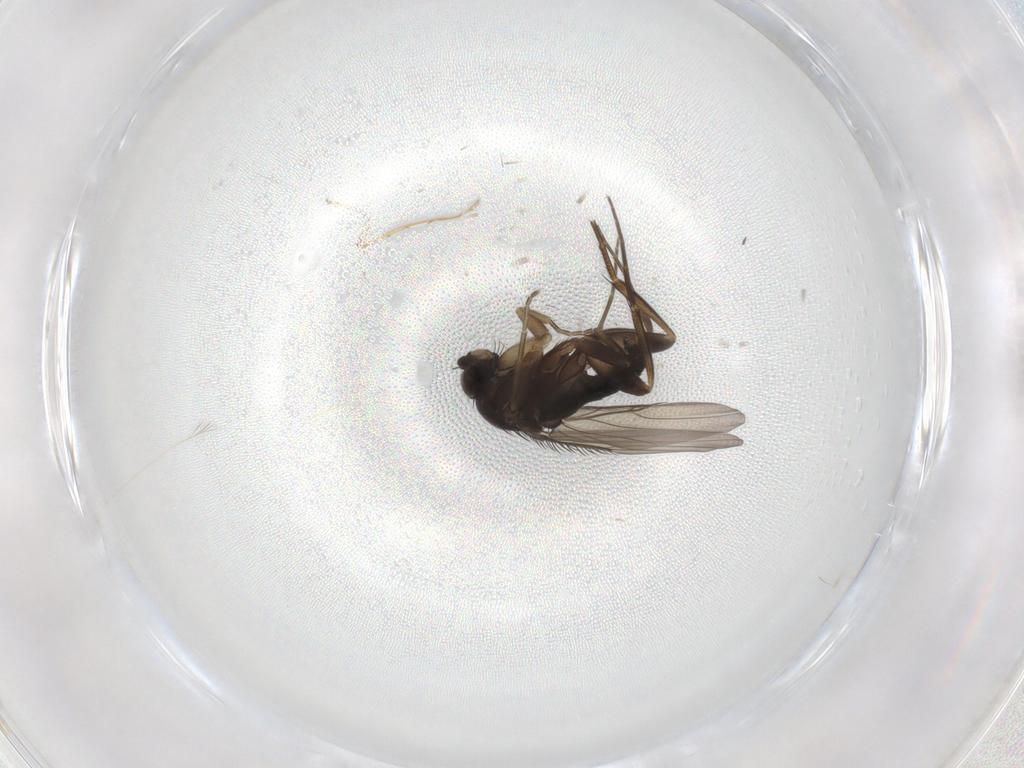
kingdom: Animalia
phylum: Arthropoda
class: Insecta
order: Diptera
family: Phoridae
